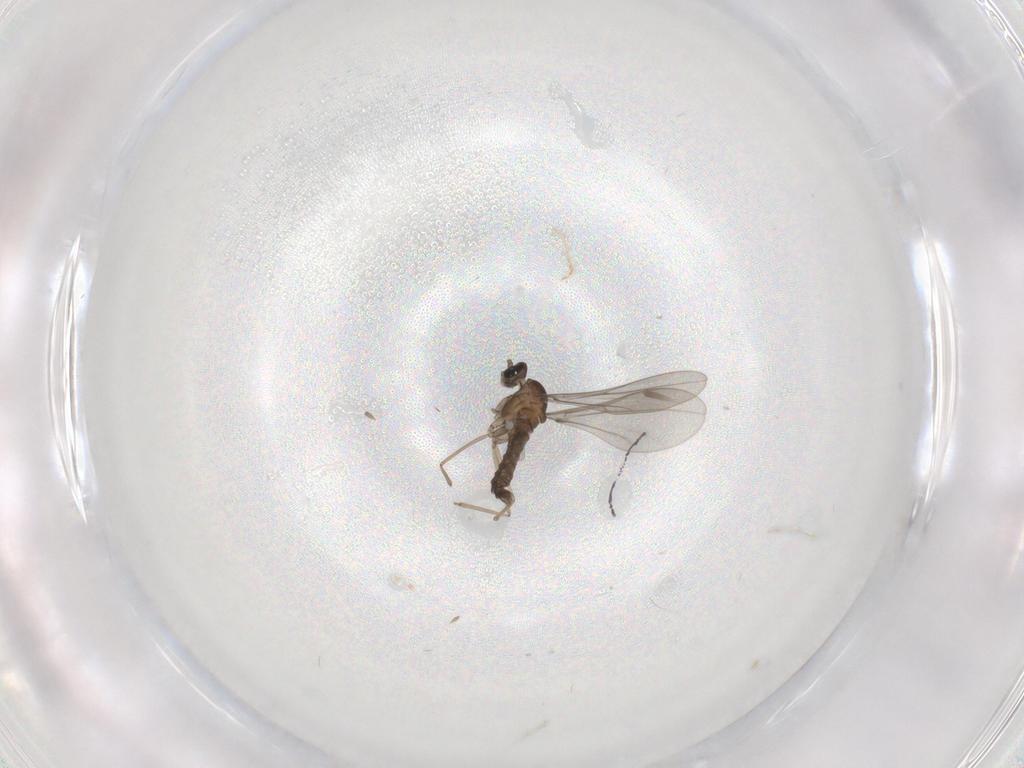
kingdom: Animalia
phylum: Arthropoda
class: Insecta
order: Diptera
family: Cecidomyiidae
